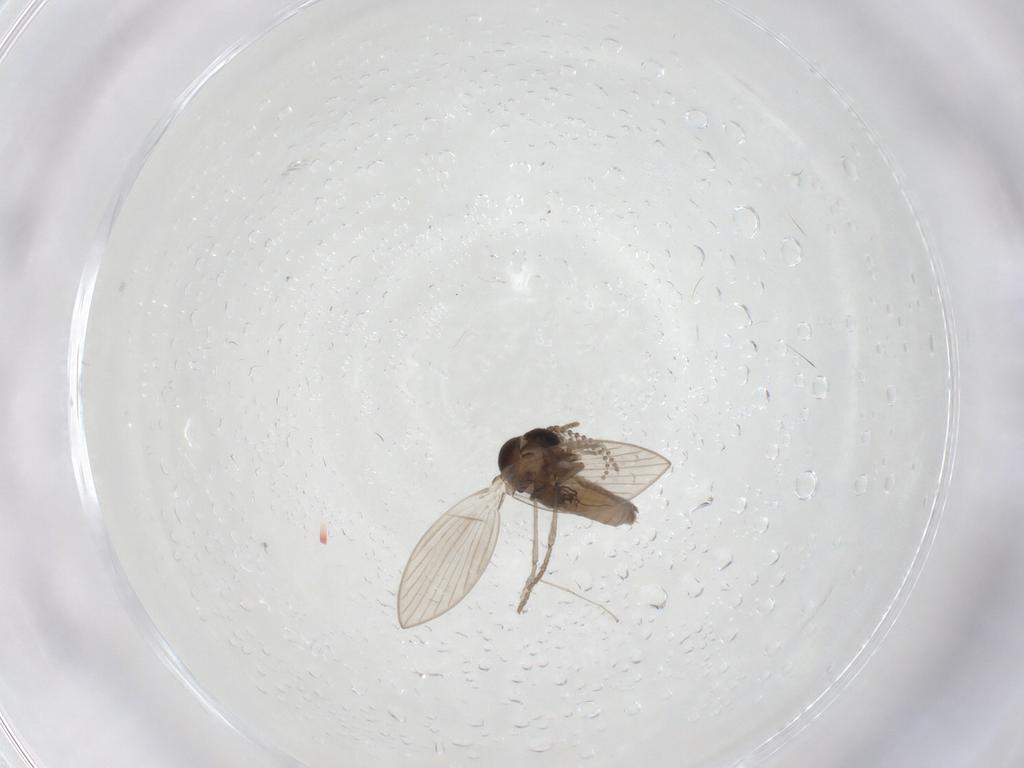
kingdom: Animalia
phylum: Arthropoda
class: Insecta
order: Diptera
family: Psychodidae
